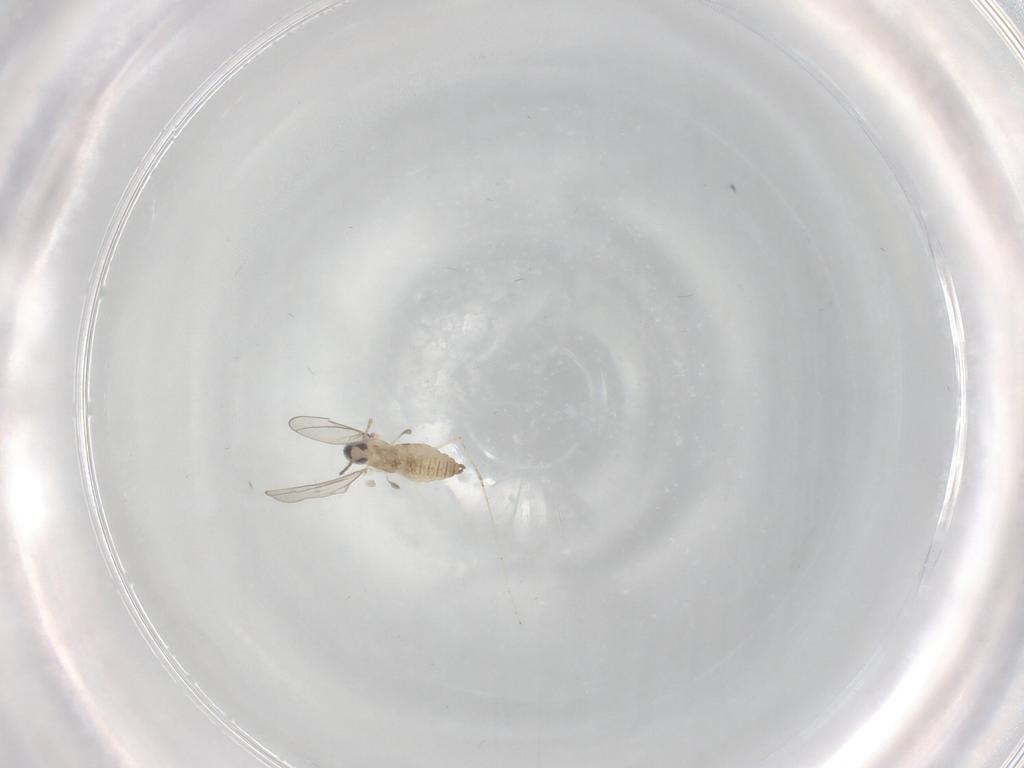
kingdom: Animalia
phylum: Arthropoda
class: Insecta
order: Diptera
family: Cecidomyiidae
